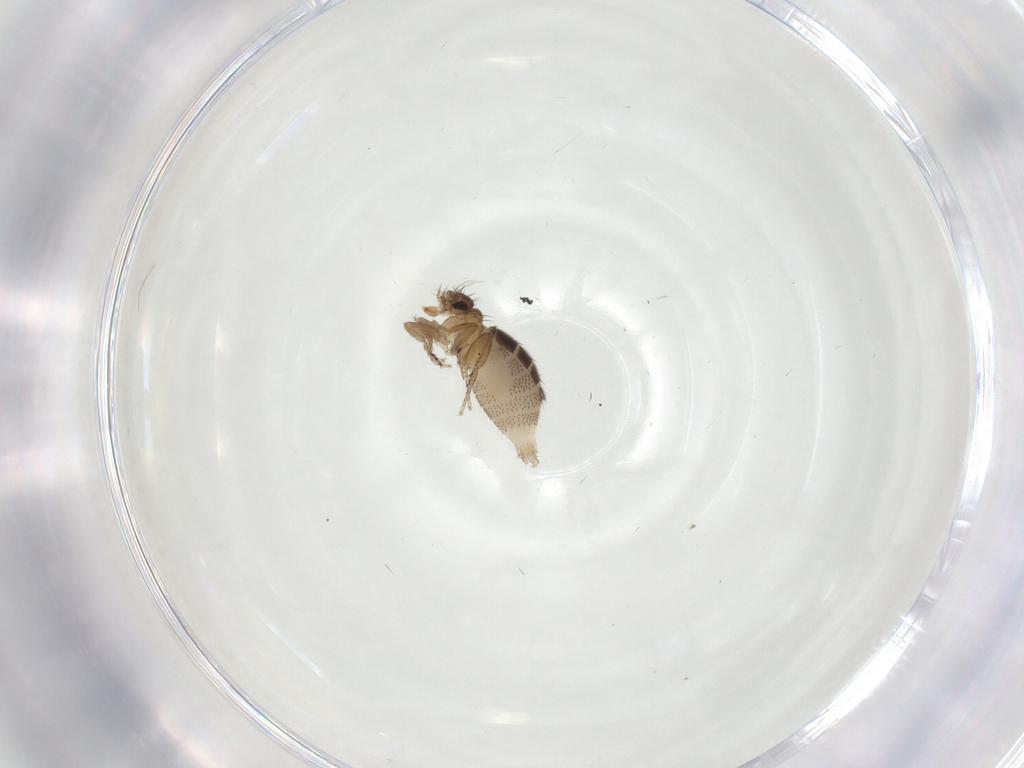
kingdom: Animalia
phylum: Arthropoda
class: Insecta
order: Diptera
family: Phoridae
